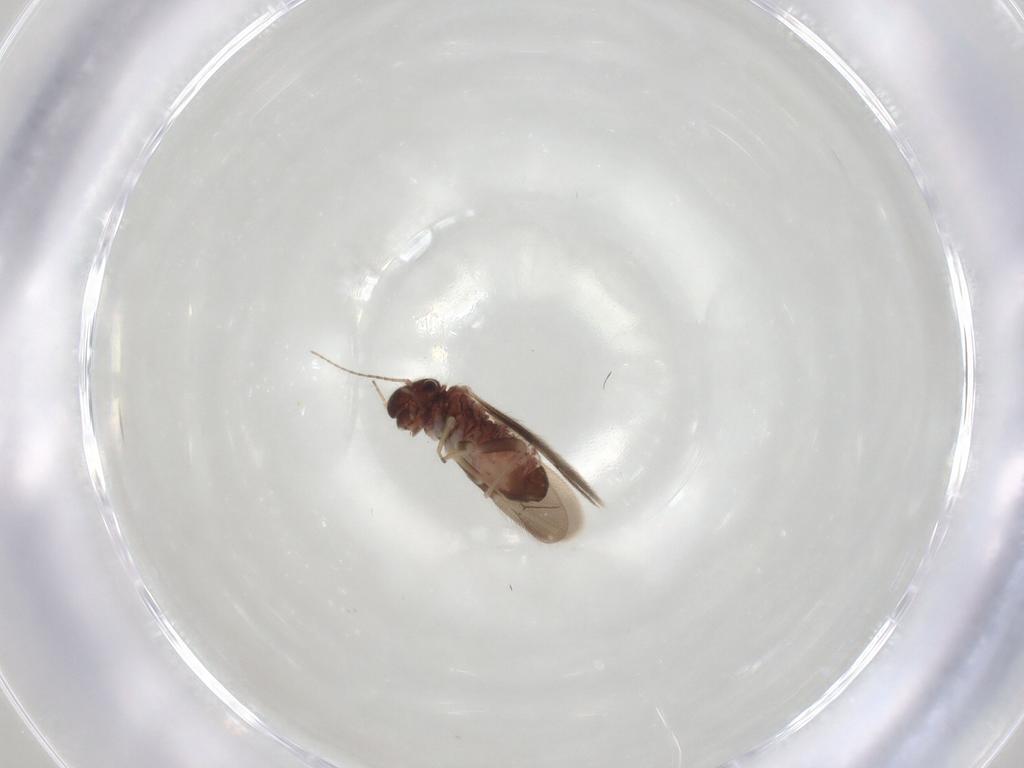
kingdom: Animalia
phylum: Arthropoda
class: Insecta
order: Psocodea
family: Archipsocidae
